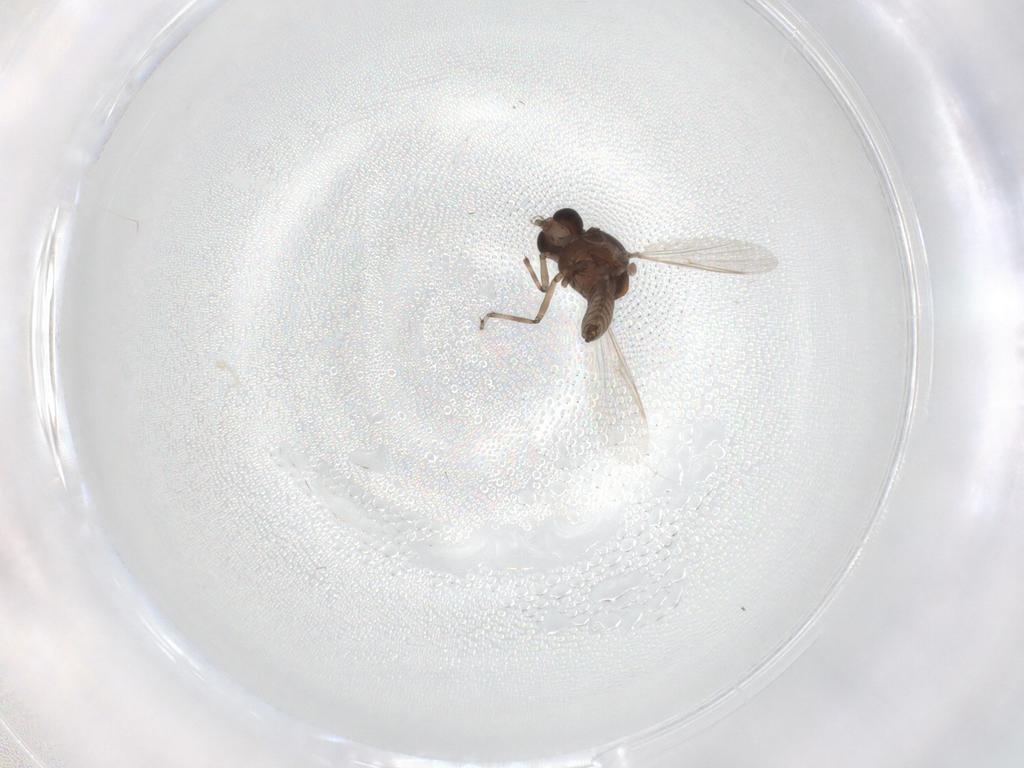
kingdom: Animalia
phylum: Arthropoda
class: Insecta
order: Diptera
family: Ceratopogonidae
